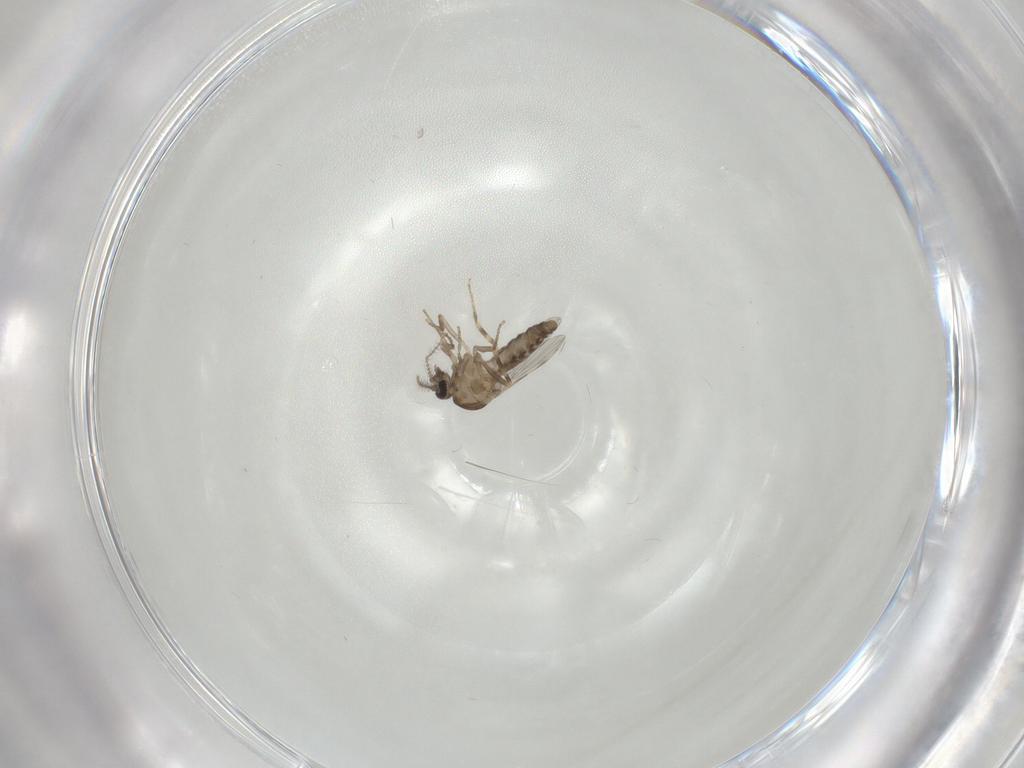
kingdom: Animalia
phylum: Arthropoda
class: Insecta
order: Diptera
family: Ceratopogonidae
